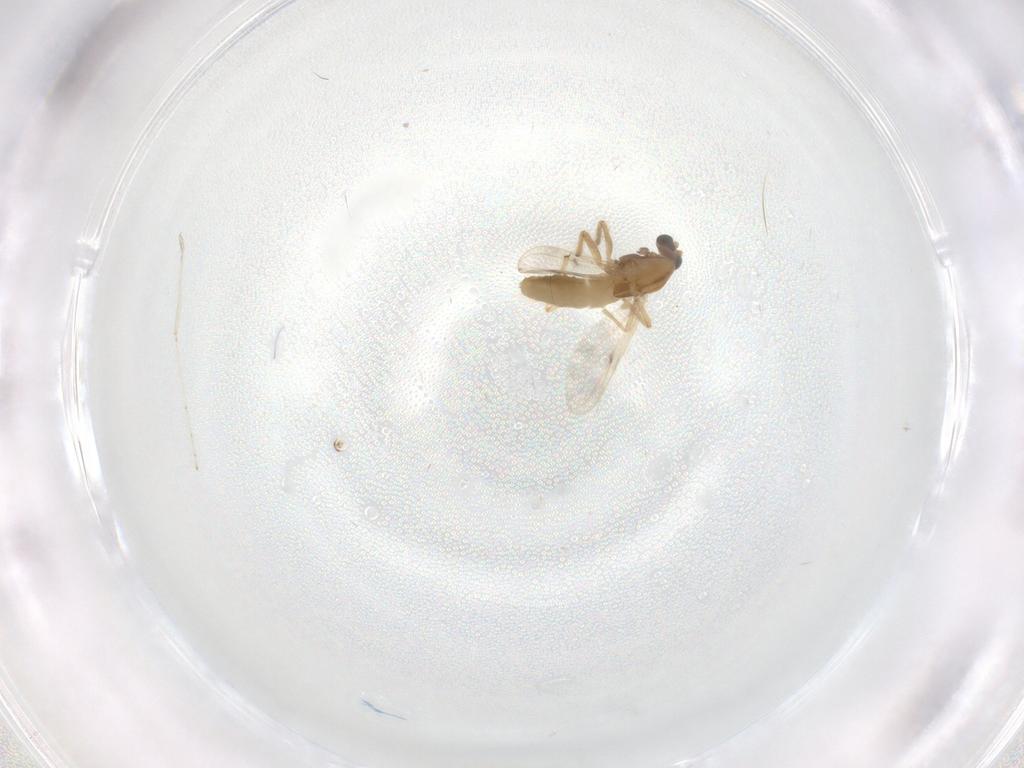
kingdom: Animalia
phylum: Arthropoda
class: Insecta
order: Diptera
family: Cecidomyiidae
